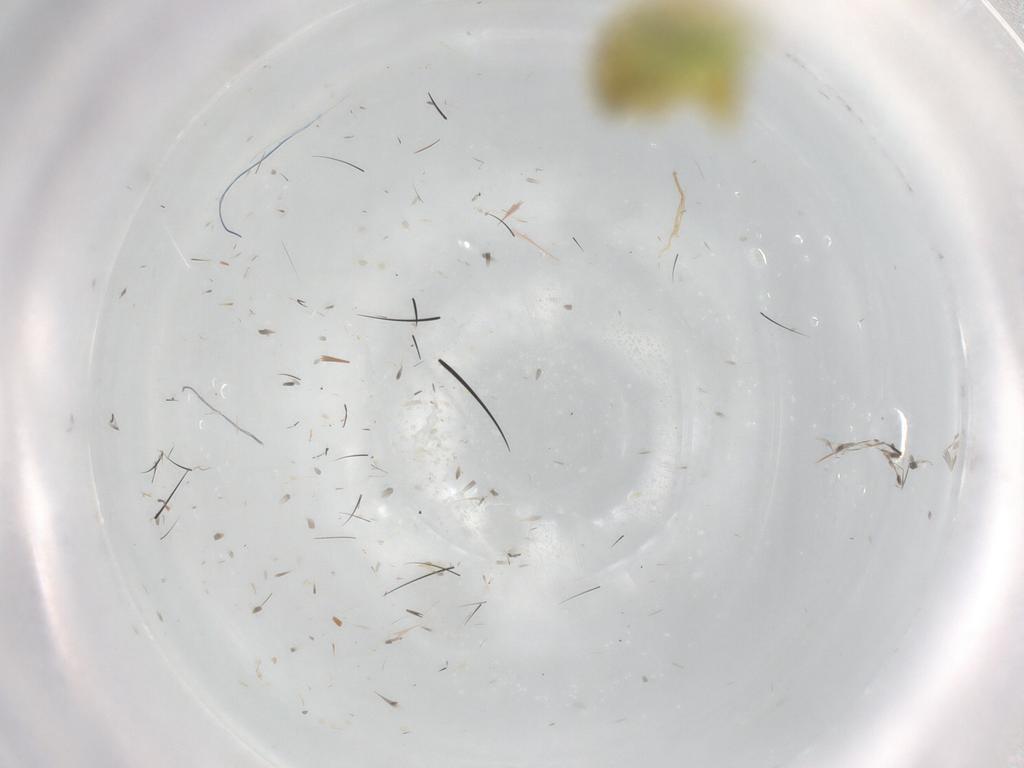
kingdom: Animalia
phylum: Arthropoda
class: Insecta
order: Hemiptera
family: Cicadellidae
